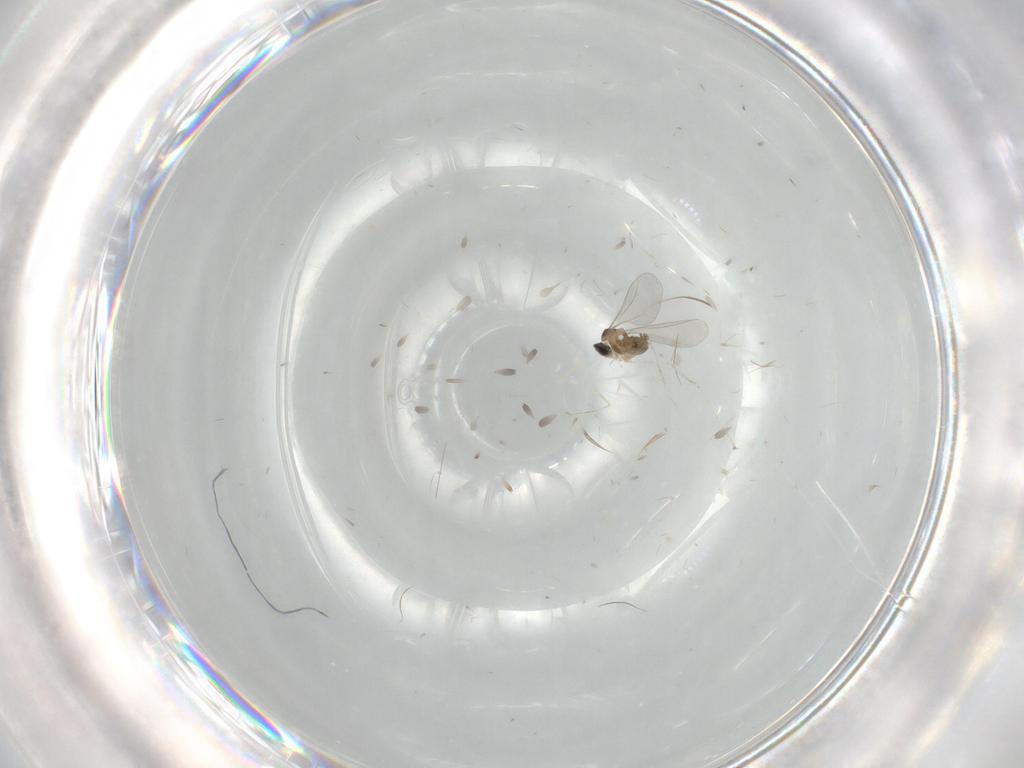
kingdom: Animalia
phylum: Arthropoda
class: Insecta
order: Diptera
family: Cecidomyiidae
